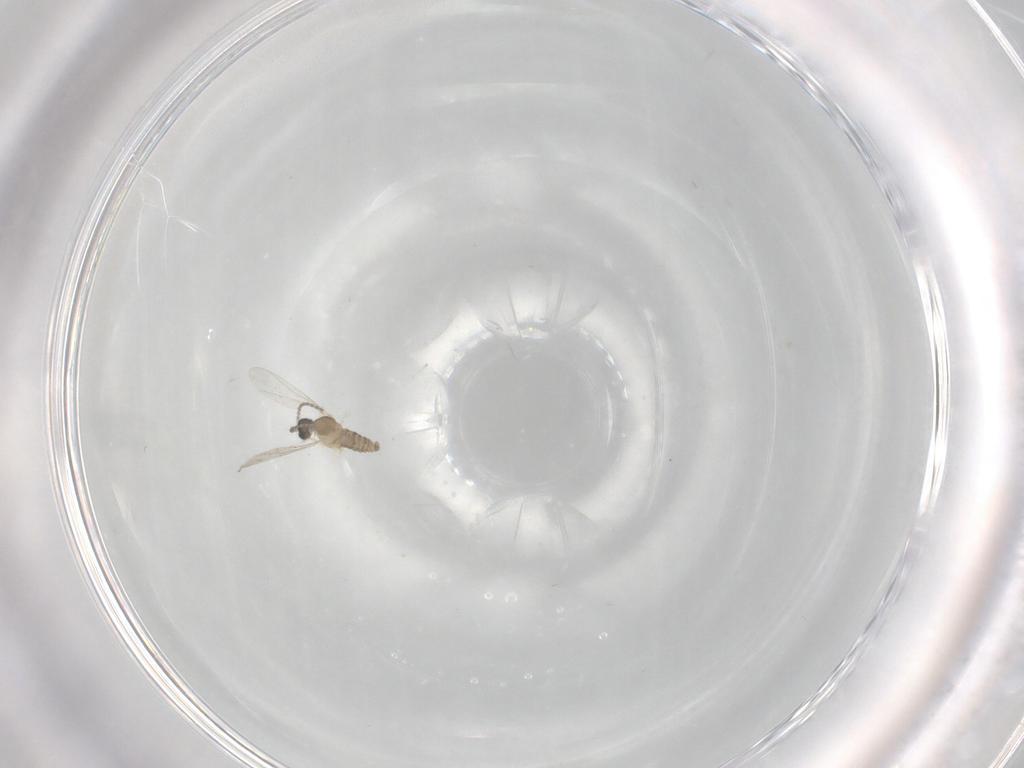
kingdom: Animalia
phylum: Arthropoda
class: Insecta
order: Diptera
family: Cecidomyiidae
